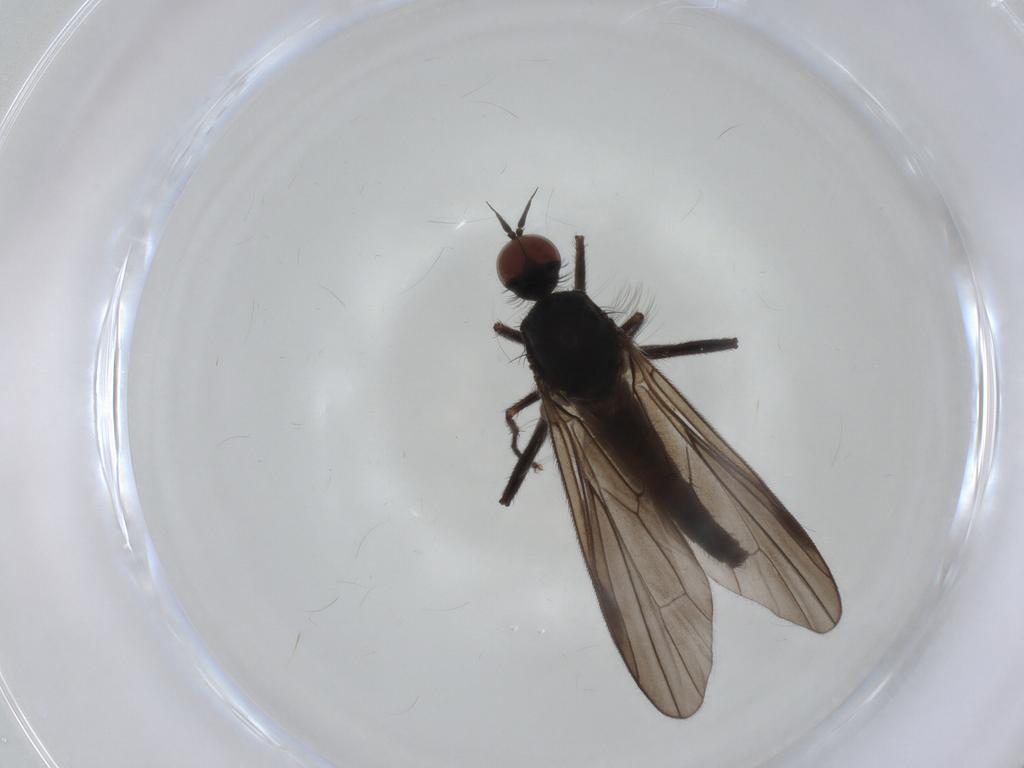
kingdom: Animalia
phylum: Arthropoda
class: Insecta
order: Diptera
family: Hybotidae
